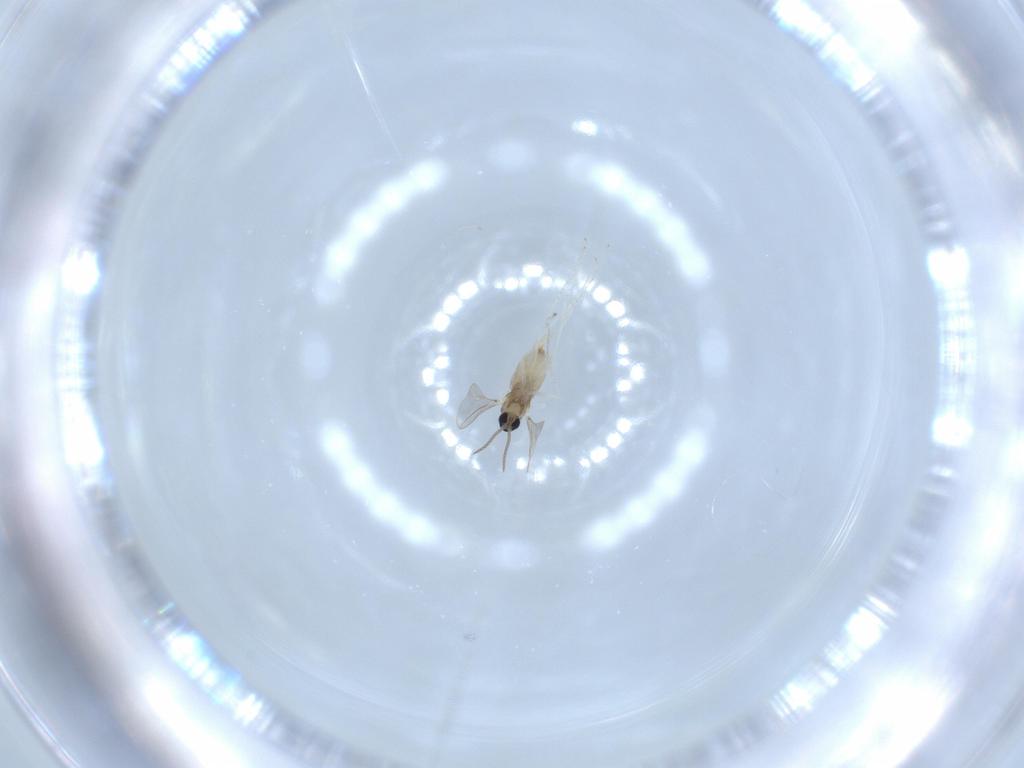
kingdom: Animalia
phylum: Arthropoda
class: Insecta
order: Diptera
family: Cecidomyiidae
